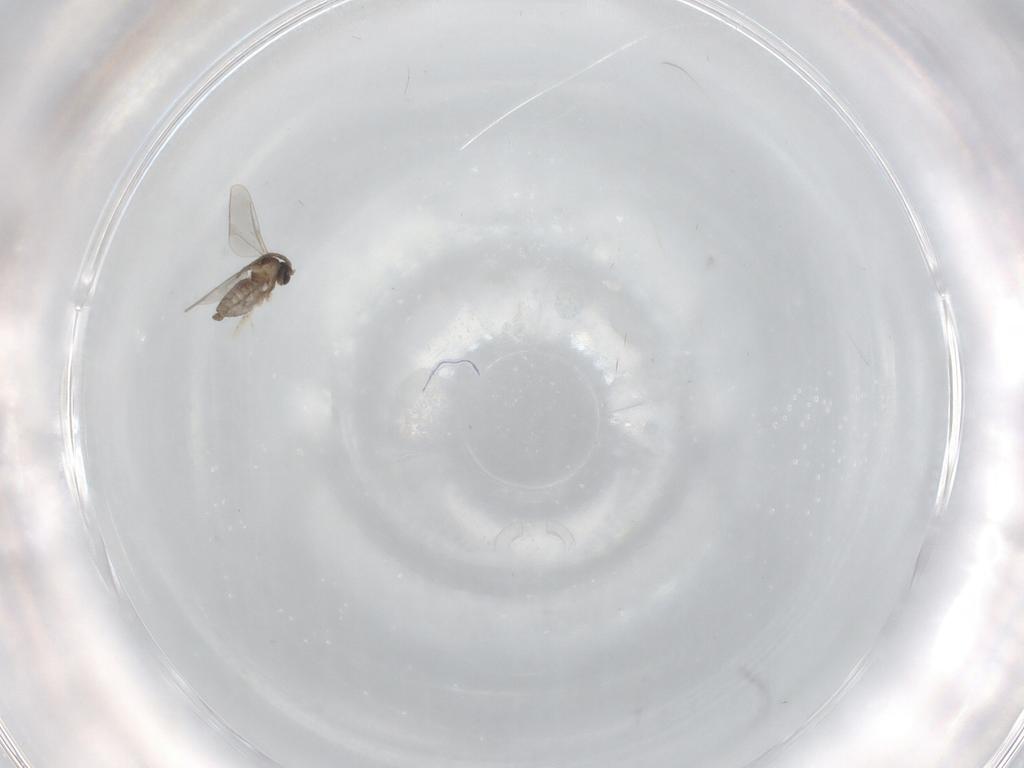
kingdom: Animalia
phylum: Arthropoda
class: Insecta
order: Diptera
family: Cecidomyiidae
